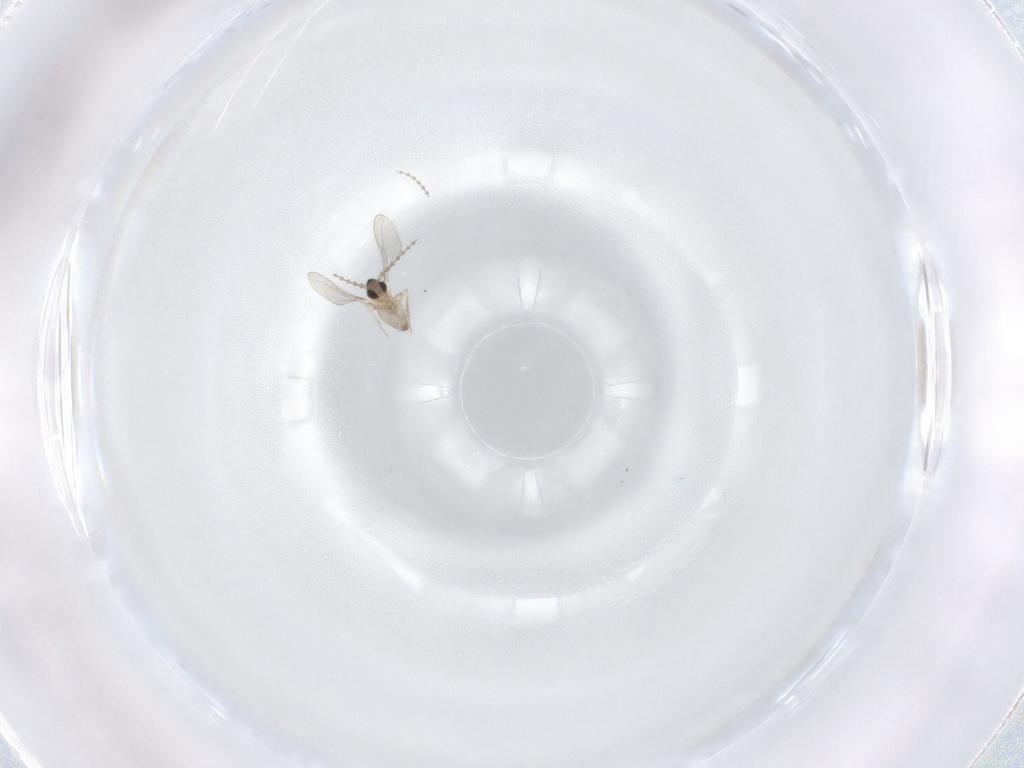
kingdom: Animalia
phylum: Arthropoda
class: Insecta
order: Diptera
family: Cecidomyiidae
